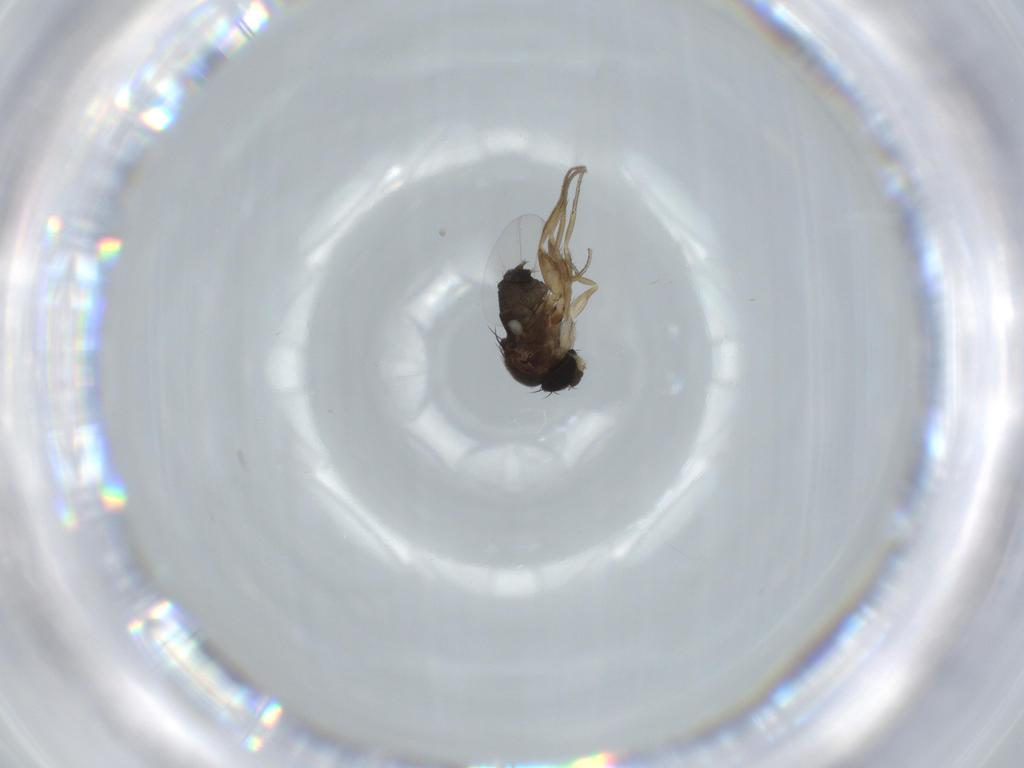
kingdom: Animalia
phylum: Arthropoda
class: Insecta
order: Diptera
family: Phoridae
